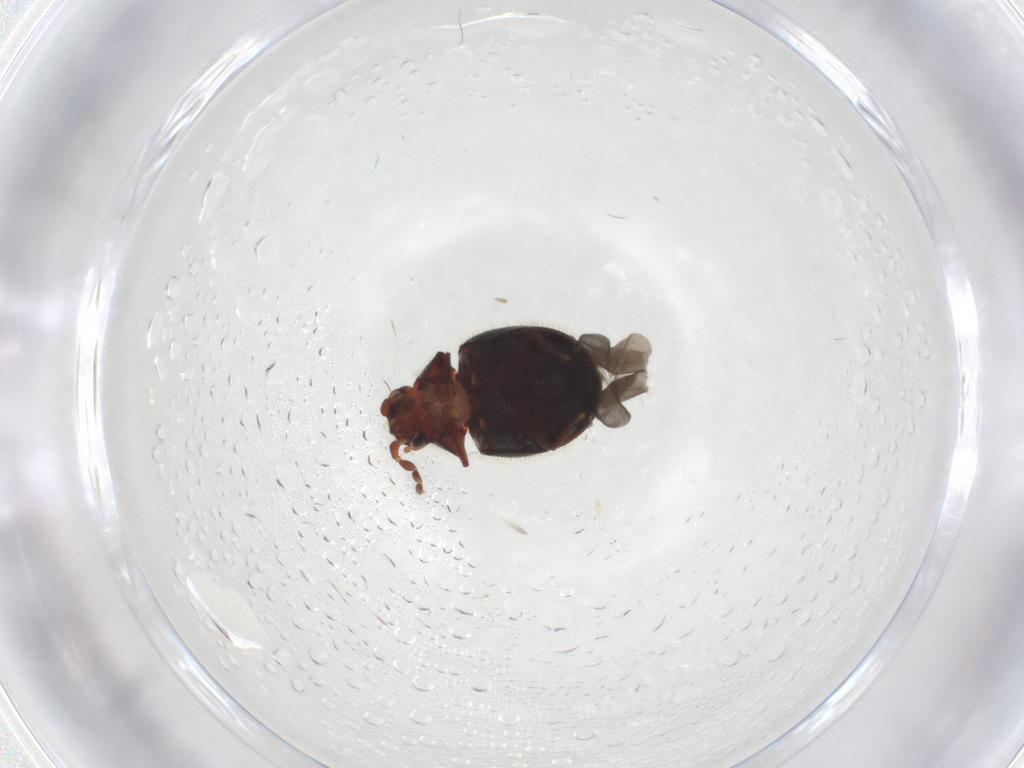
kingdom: Animalia
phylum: Arthropoda
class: Insecta
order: Coleoptera
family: Ptinidae
